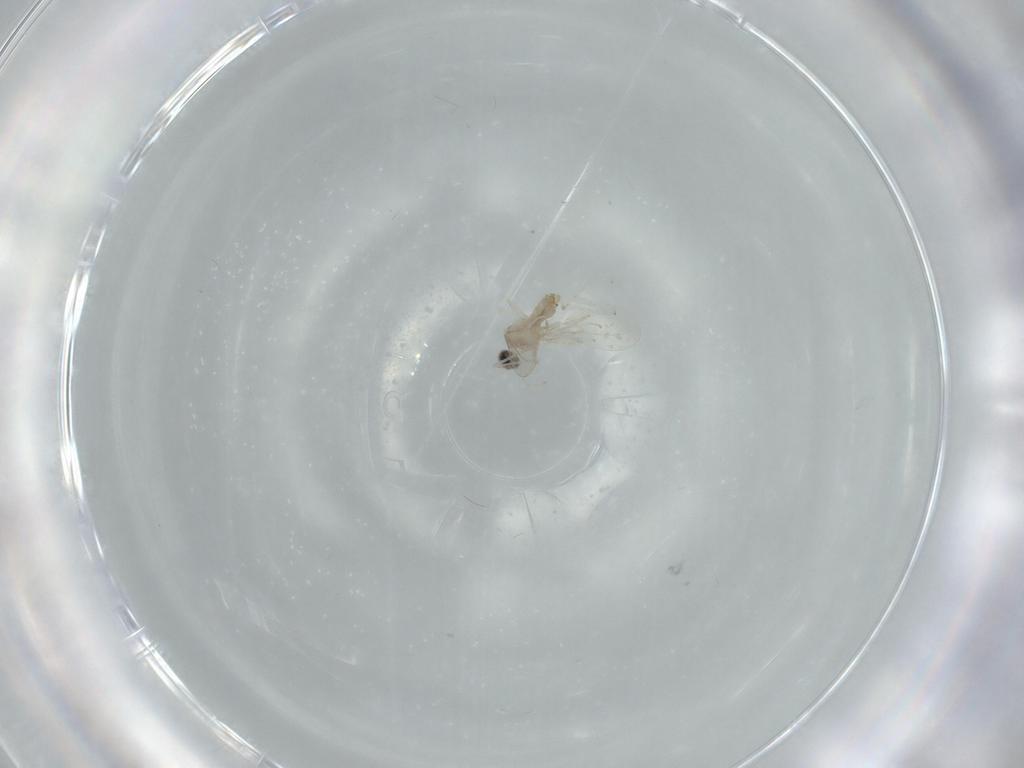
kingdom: Animalia
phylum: Arthropoda
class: Insecta
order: Diptera
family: Cecidomyiidae
